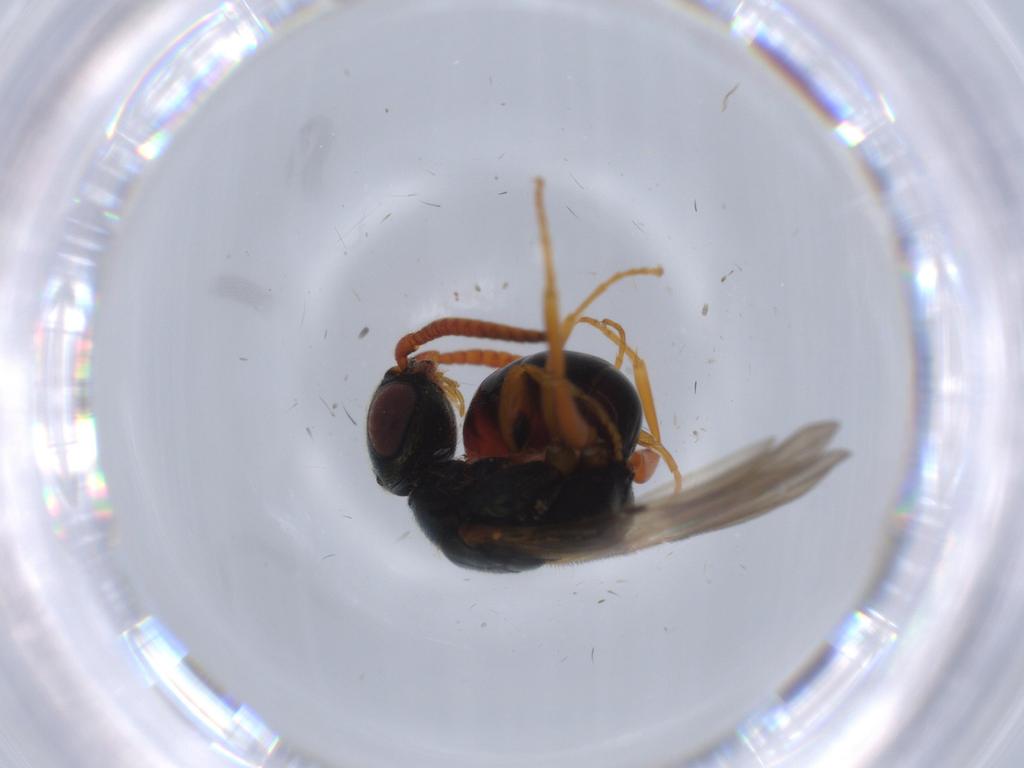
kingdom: Animalia
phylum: Arthropoda
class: Insecta
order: Hymenoptera
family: Bethylidae
